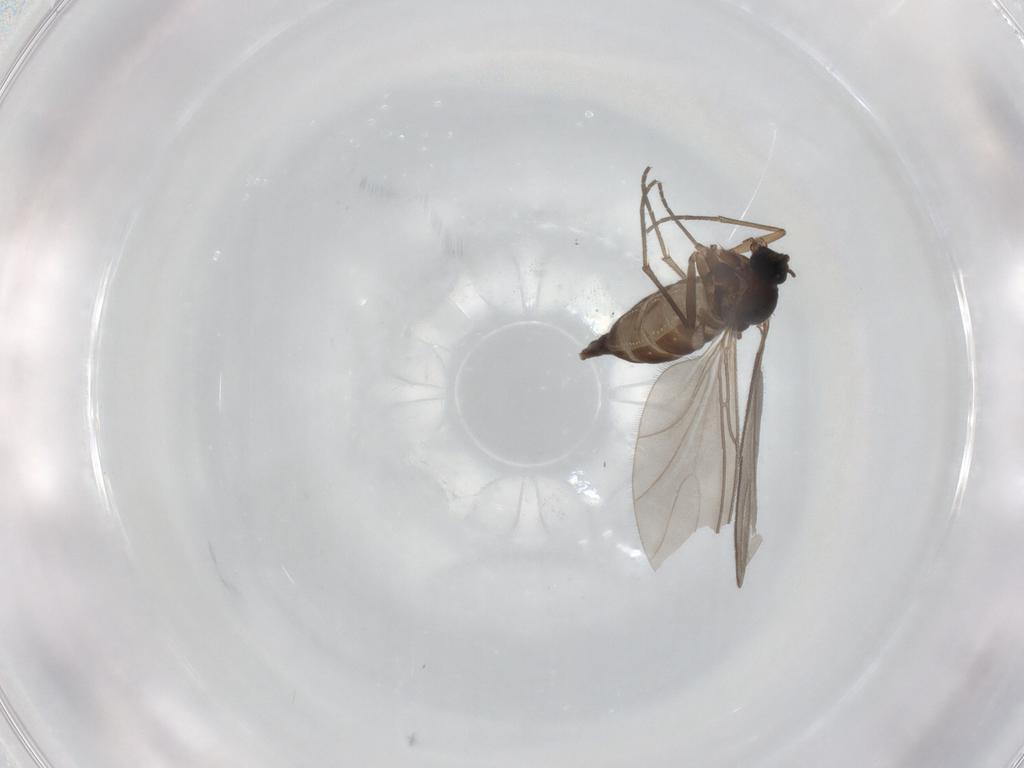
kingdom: Animalia
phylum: Arthropoda
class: Insecta
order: Diptera
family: Sciaridae
